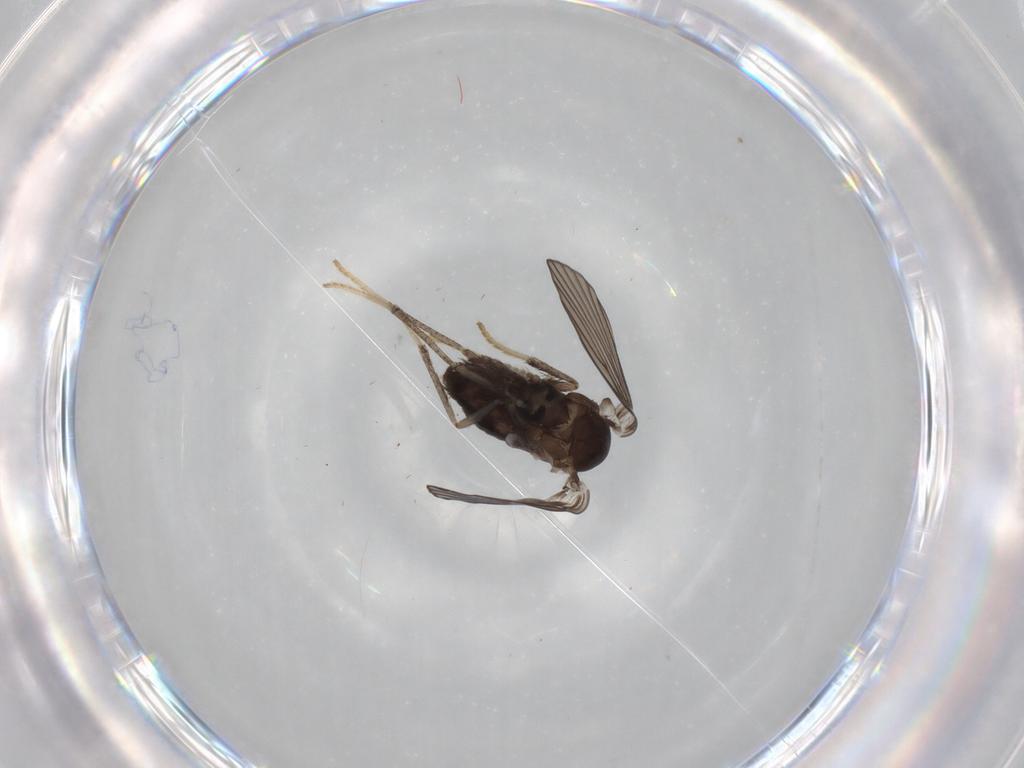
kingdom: Animalia
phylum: Arthropoda
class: Insecta
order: Diptera
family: Psychodidae
